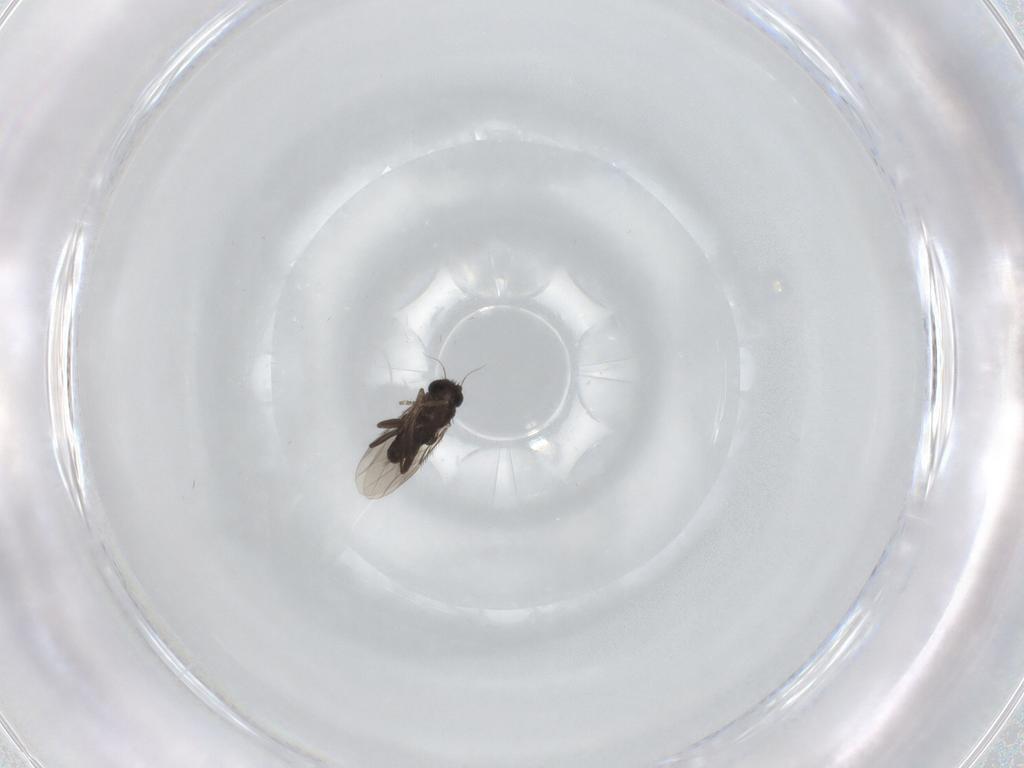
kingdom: Animalia
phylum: Arthropoda
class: Insecta
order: Diptera
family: Phoridae
